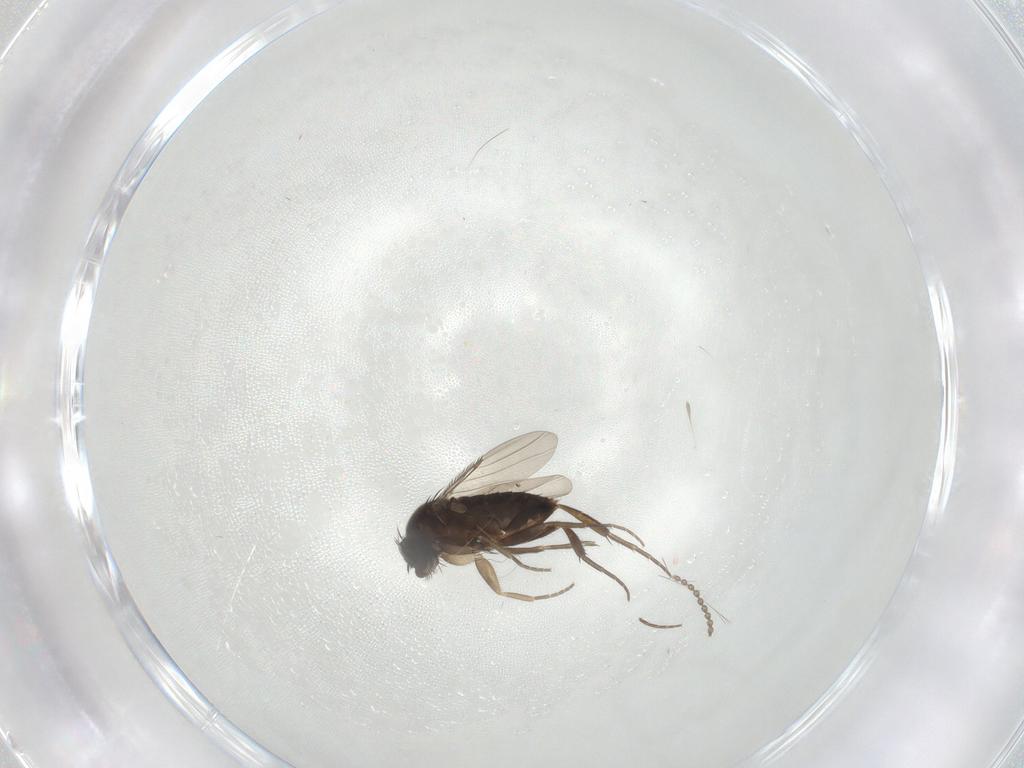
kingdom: Animalia
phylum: Arthropoda
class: Insecta
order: Diptera
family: Phoridae
